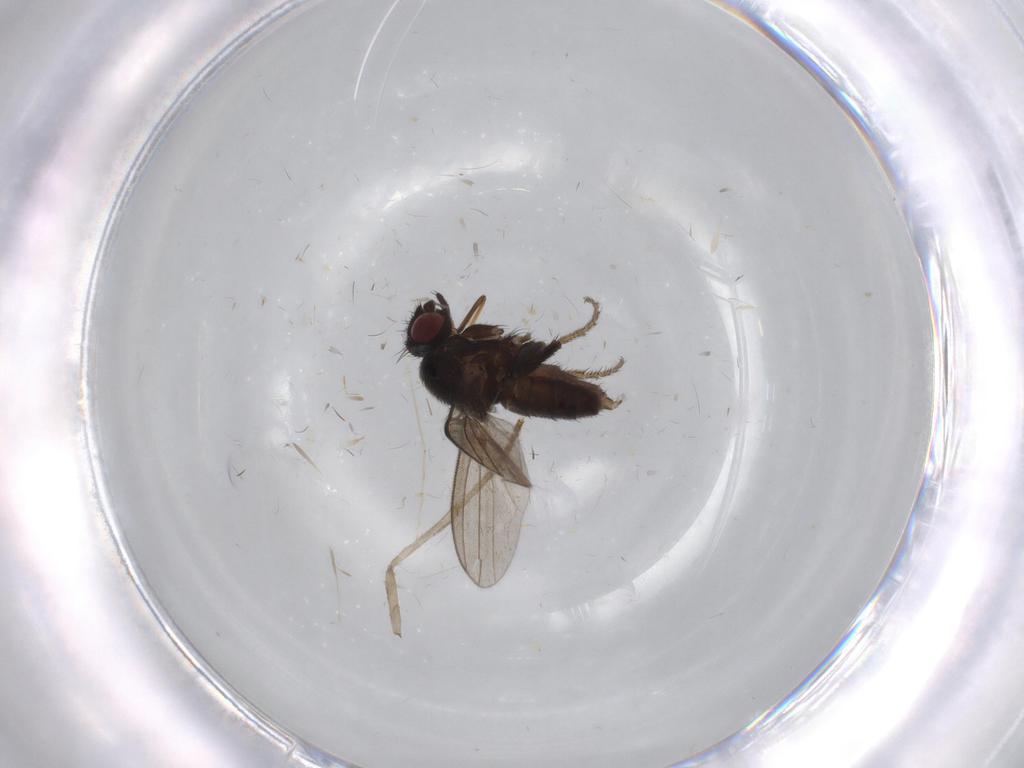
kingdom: Animalia
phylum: Arthropoda
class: Insecta
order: Diptera
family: Milichiidae
